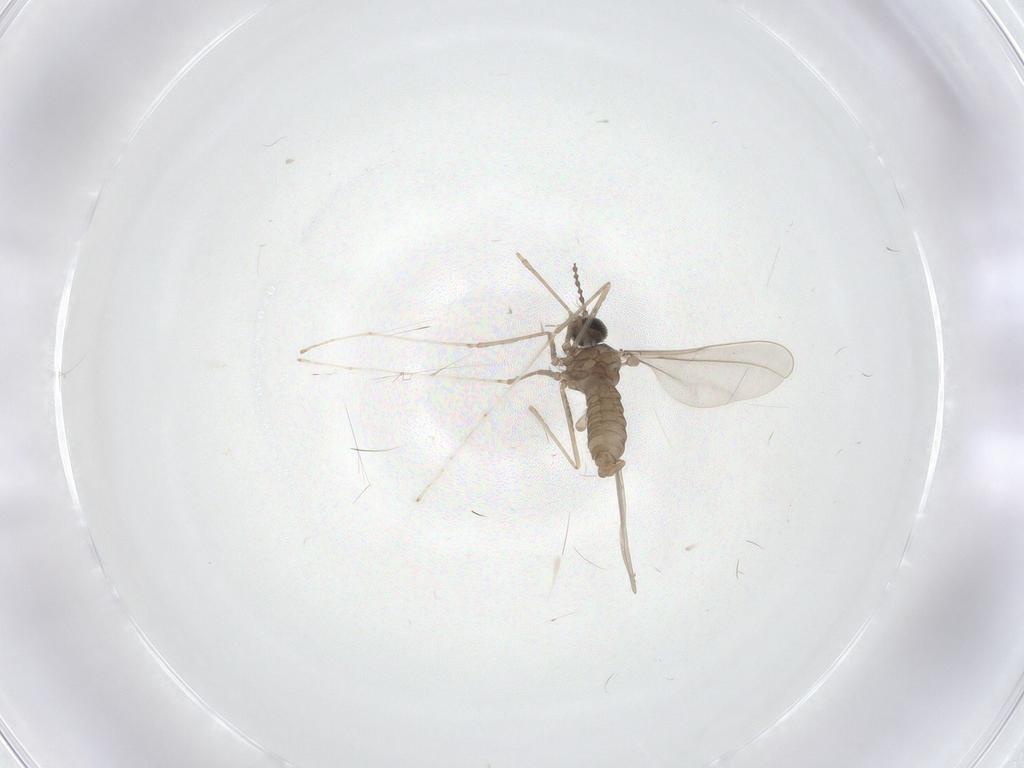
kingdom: Animalia
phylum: Arthropoda
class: Insecta
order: Diptera
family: Cecidomyiidae
